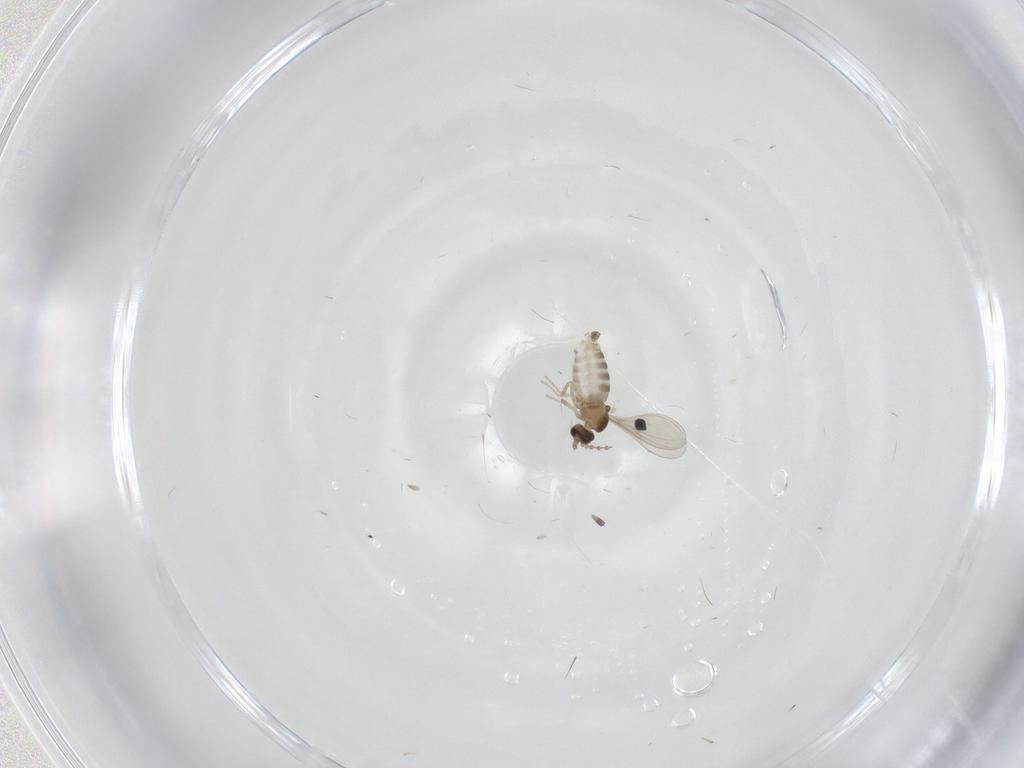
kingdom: Animalia
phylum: Arthropoda
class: Insecta
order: Diptera
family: Cecidomyiidae
